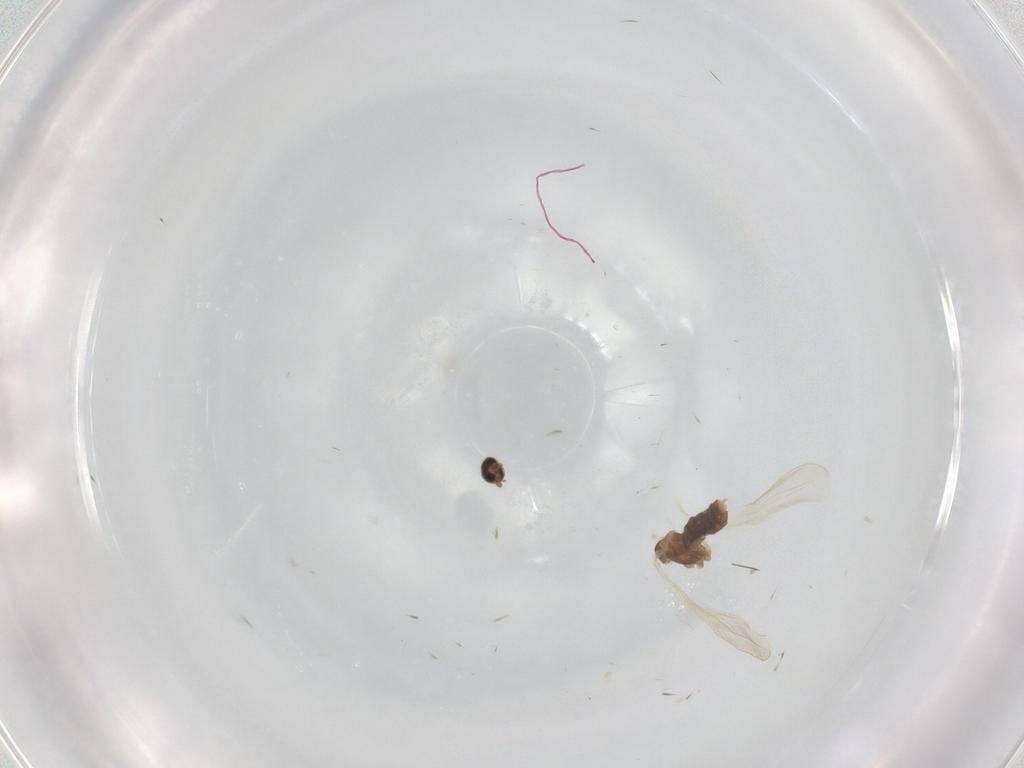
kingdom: Animalia
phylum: Arthropoda
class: Insecta
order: Diptera
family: Cecidomyiidae
